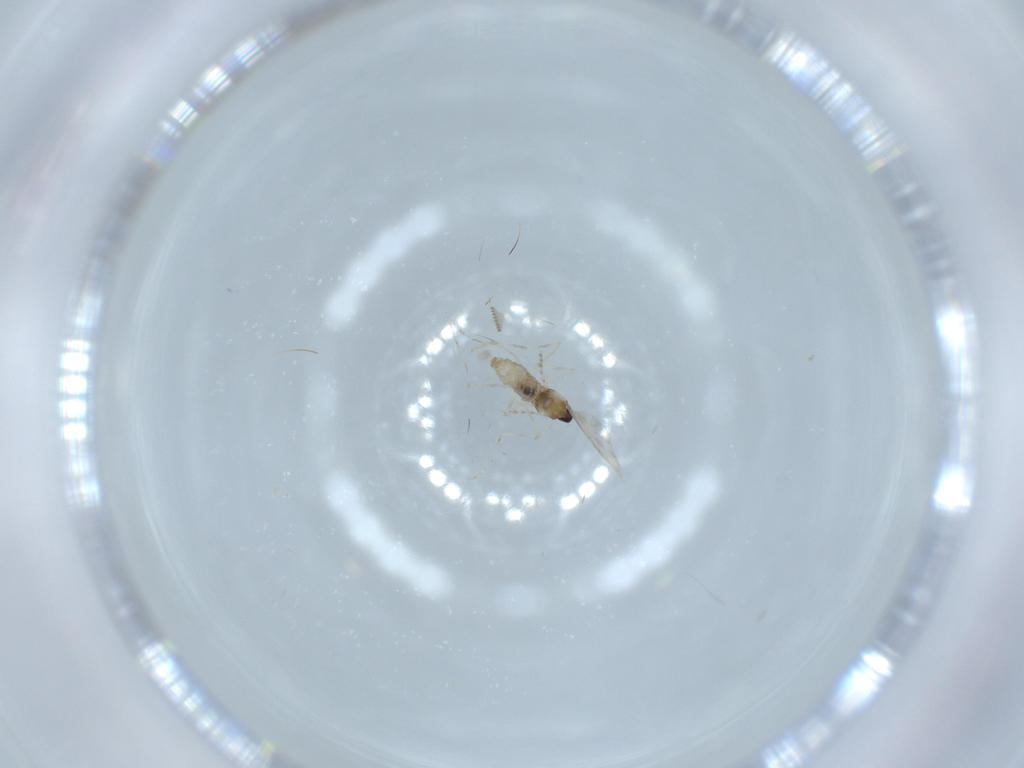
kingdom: Animalia
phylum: Arthropoda
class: Insecta
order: Diptera
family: Cecidomyiidae
